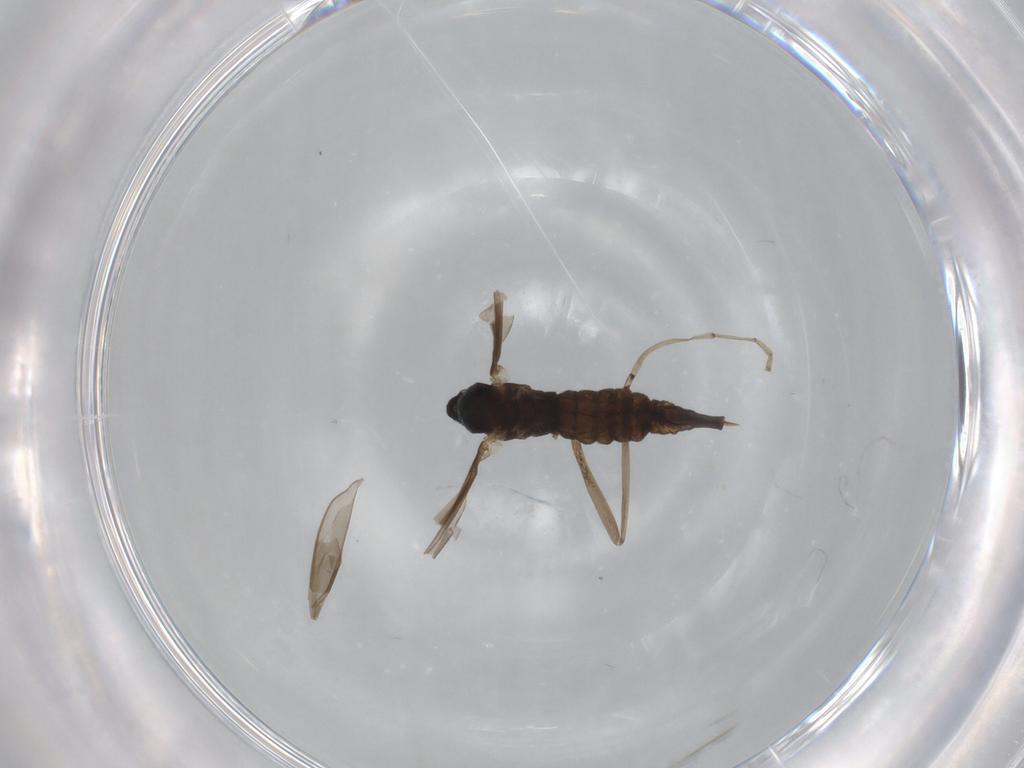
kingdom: Animalia
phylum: Arthropoda
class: Insecta
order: Diptera
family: Cecidomyiidae
